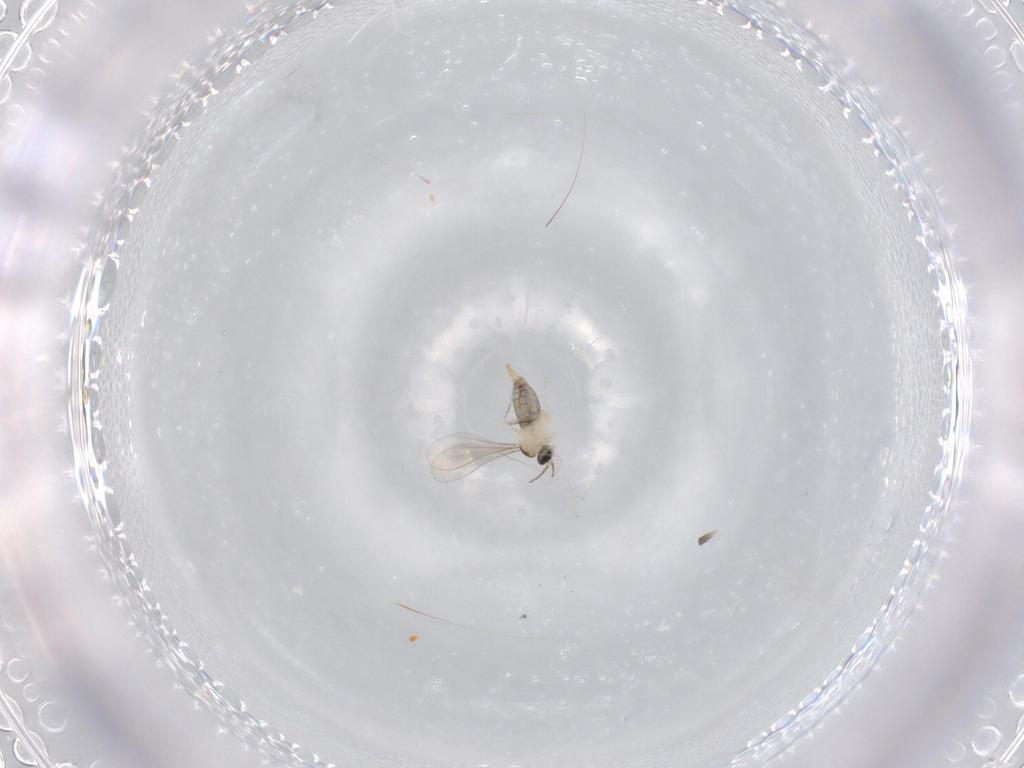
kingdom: Animalia
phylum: Arthropoda
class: Insecta
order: Diptera
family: Cecidomyiidae
